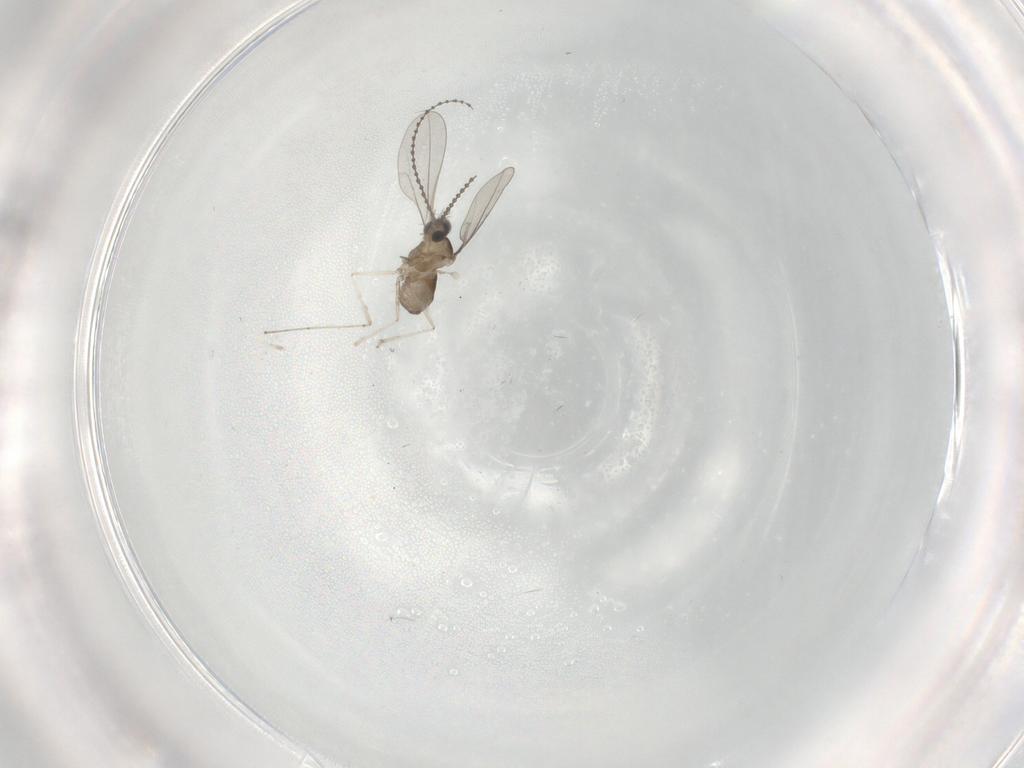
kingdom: Animalia
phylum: Arthropoda
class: Insecta
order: Diptera
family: Cecidomyiidae
